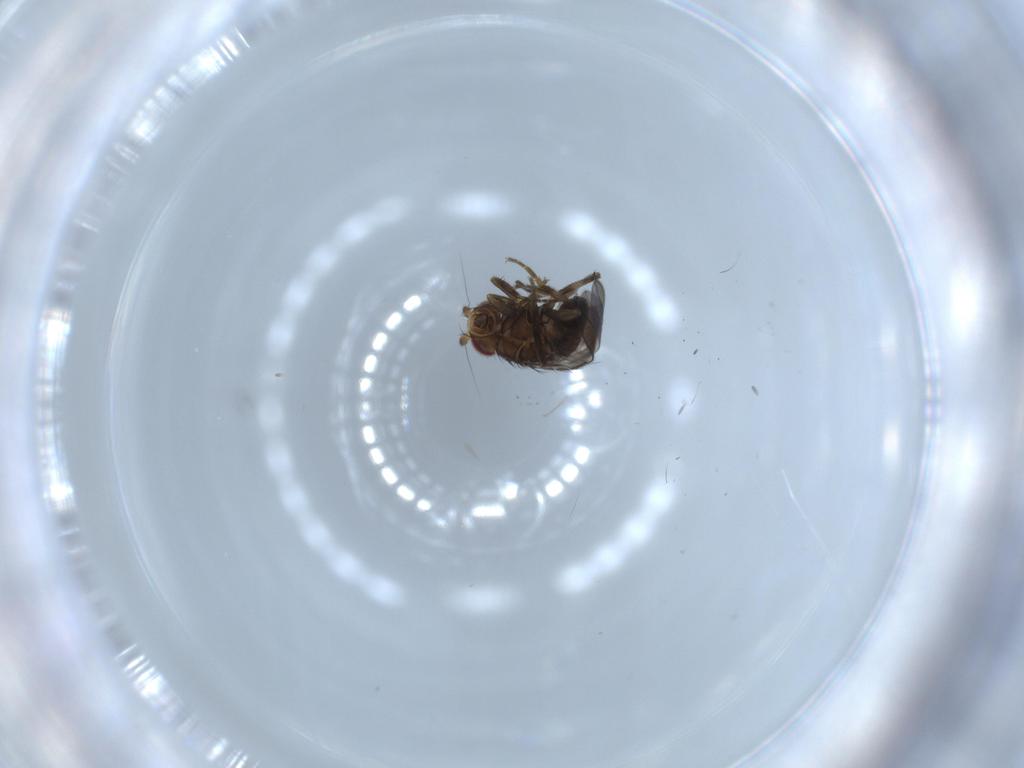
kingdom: Animalia
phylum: Arthropoda
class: Insecta
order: Diptera
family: Sphaeroceridae
